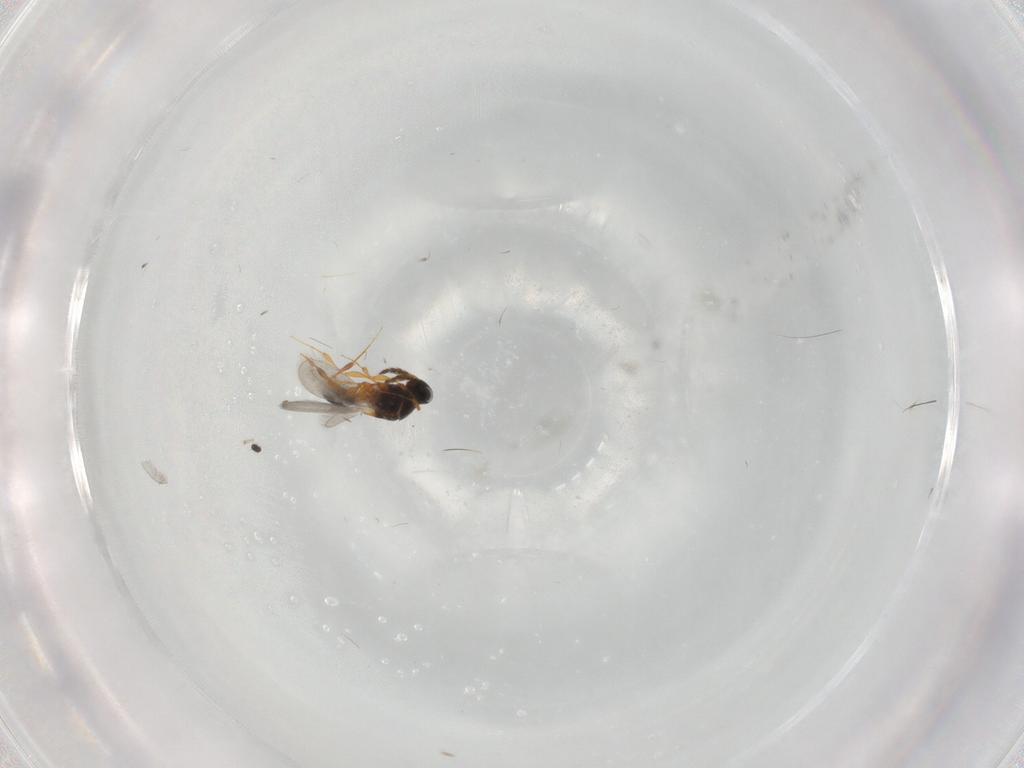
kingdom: Animalia
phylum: Arthropoda
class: Insecta
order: Hymenoptera
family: Platygastridae
